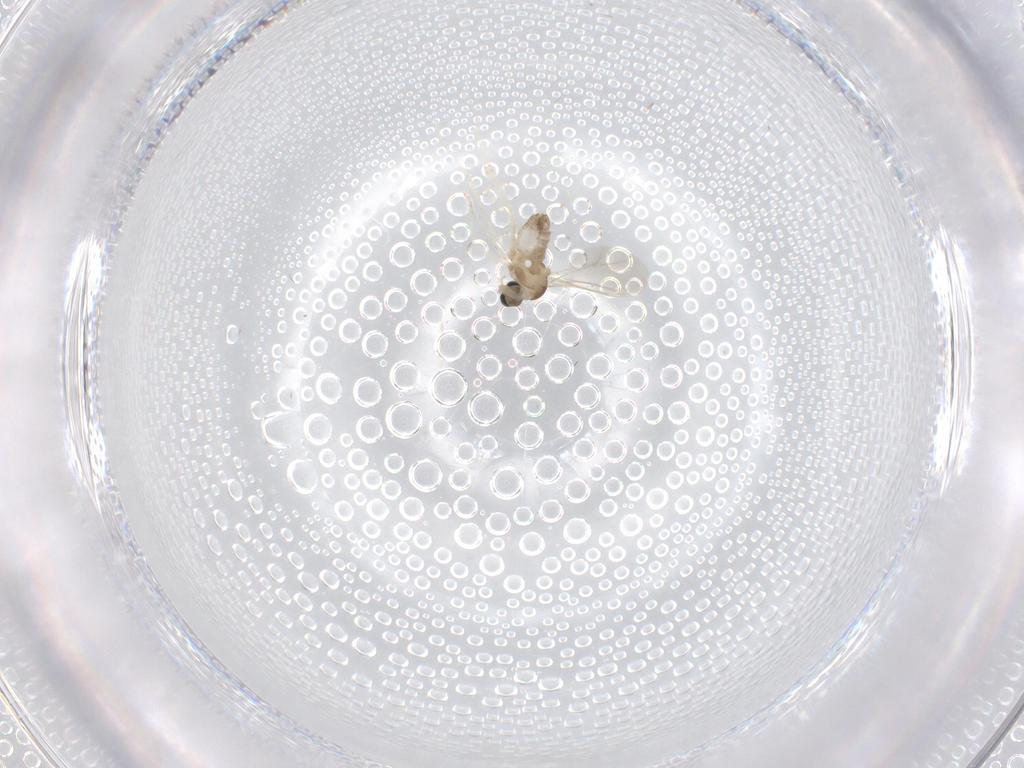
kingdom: Animalia
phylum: Arthropoda
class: Insecta
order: Diptera
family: Cecidomyiidae
